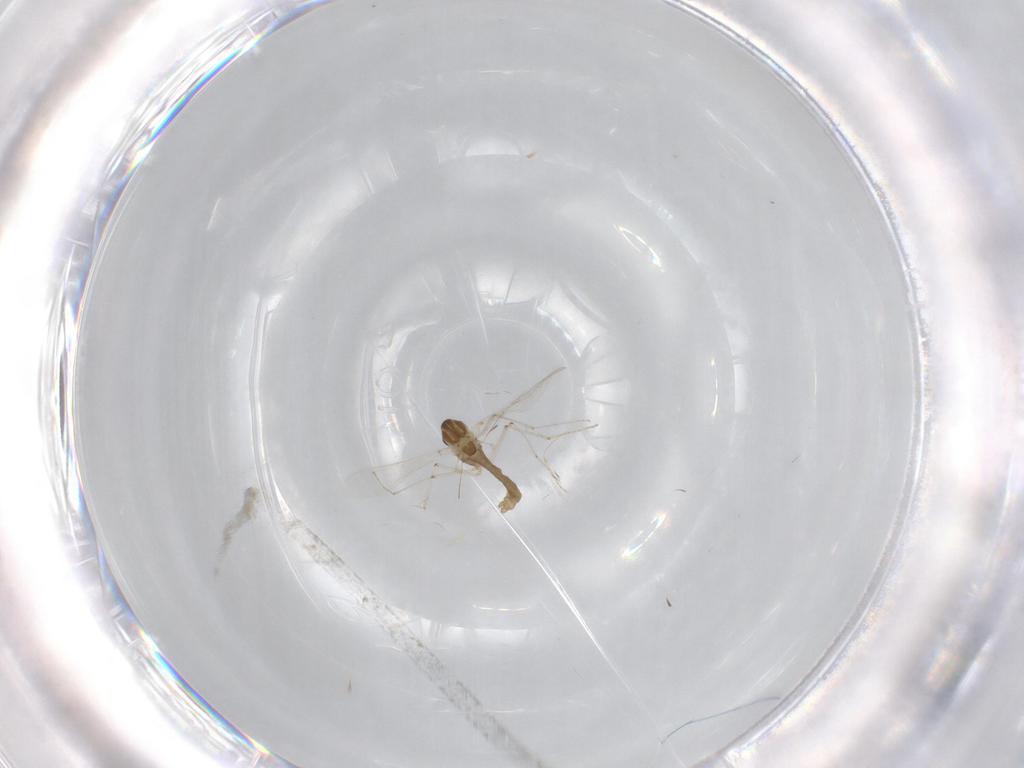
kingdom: Animalia
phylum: Arthropoda
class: Insecta
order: Diptera
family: Chironomidae
